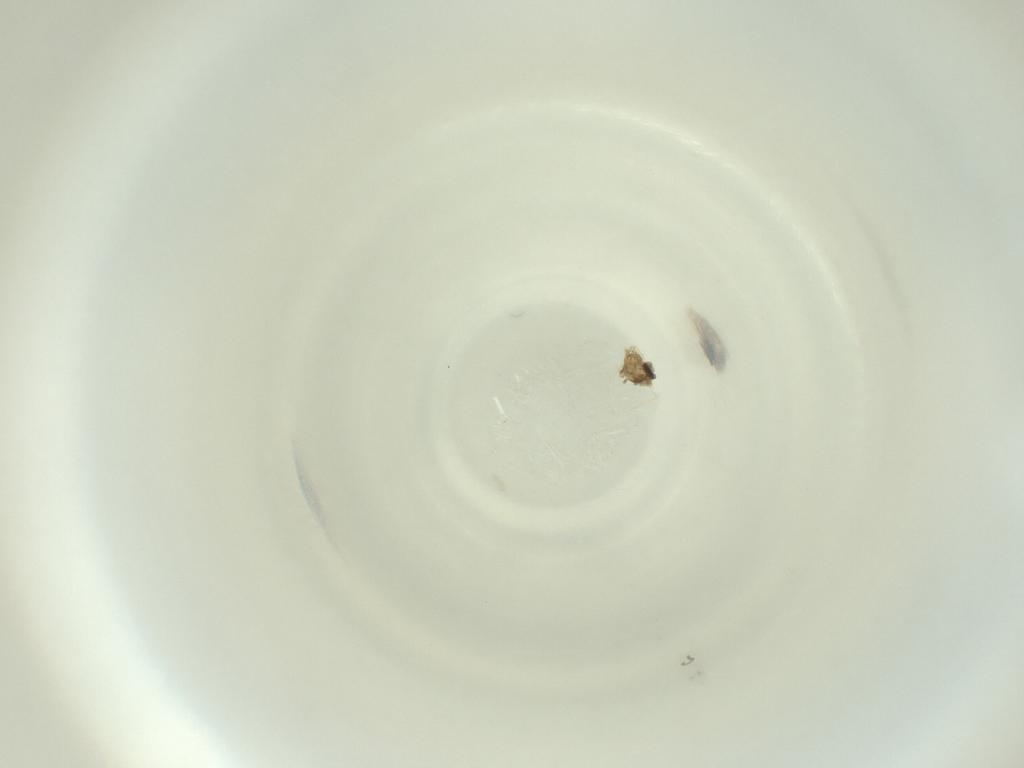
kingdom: Animalia
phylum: Arthropoda
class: Insecta
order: Diptera
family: Cecidomyiidae
